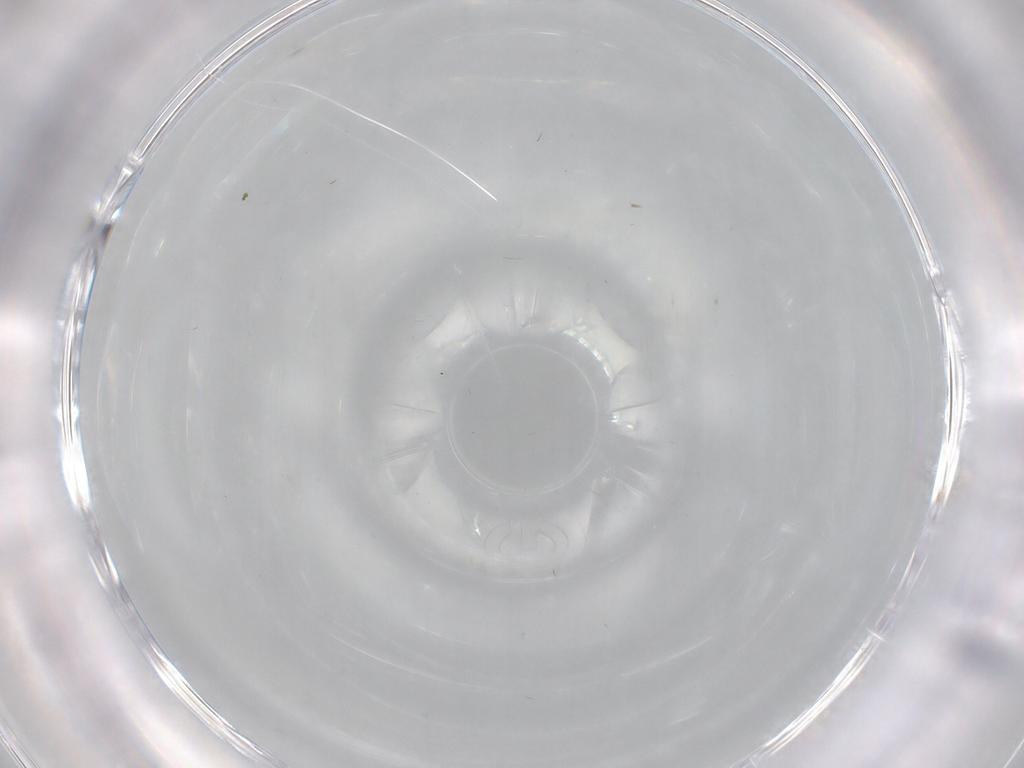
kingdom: Animalia
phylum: Arthropoda
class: Insecta
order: Diptera
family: Cecidomyiidae
